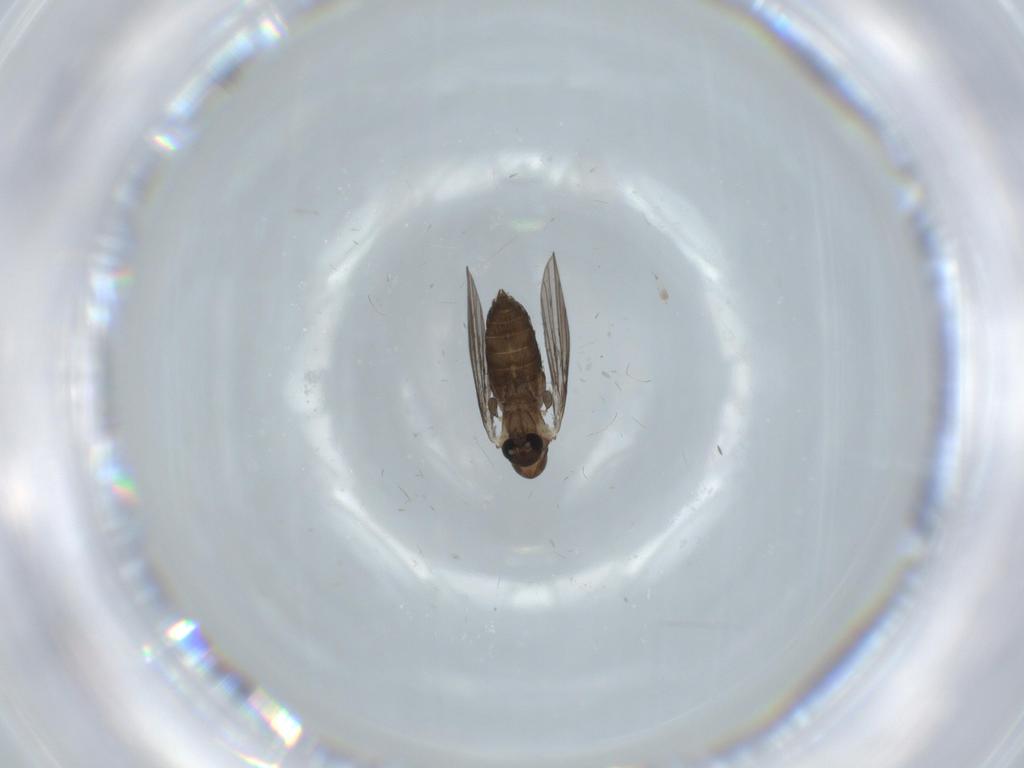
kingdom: Animalia
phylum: Arthropoda
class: Insecta
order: Diptera
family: Psychodidae
